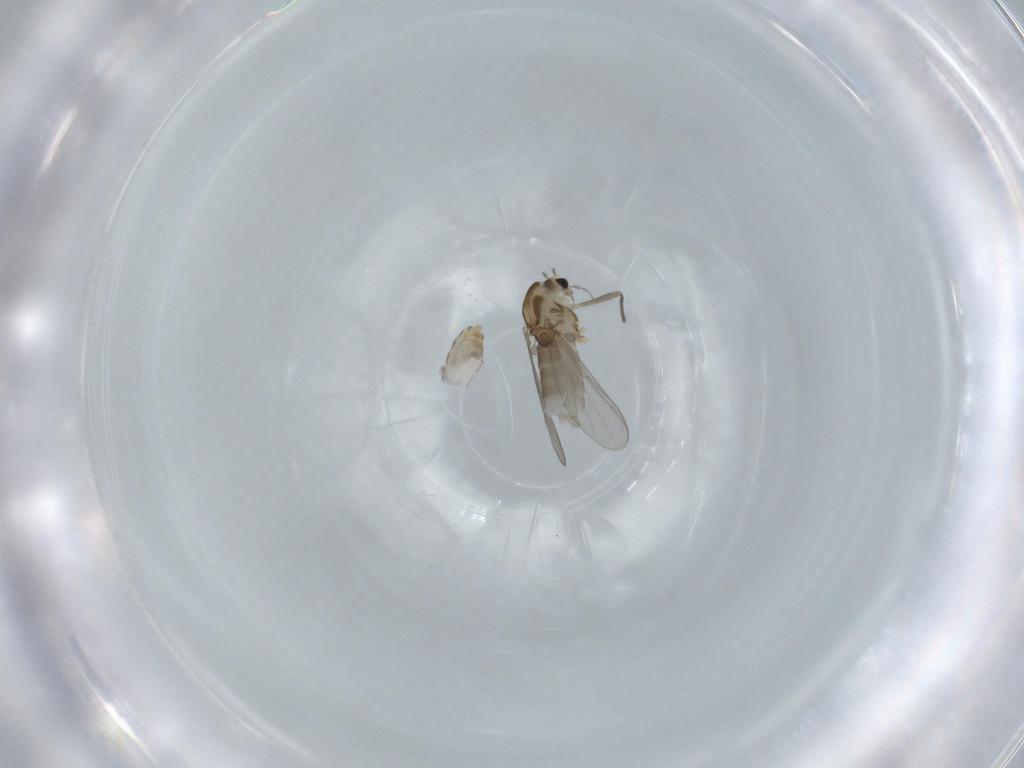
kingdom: Animalia
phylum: Arthropoda
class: Insecta
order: Diptera
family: Chironomidae
